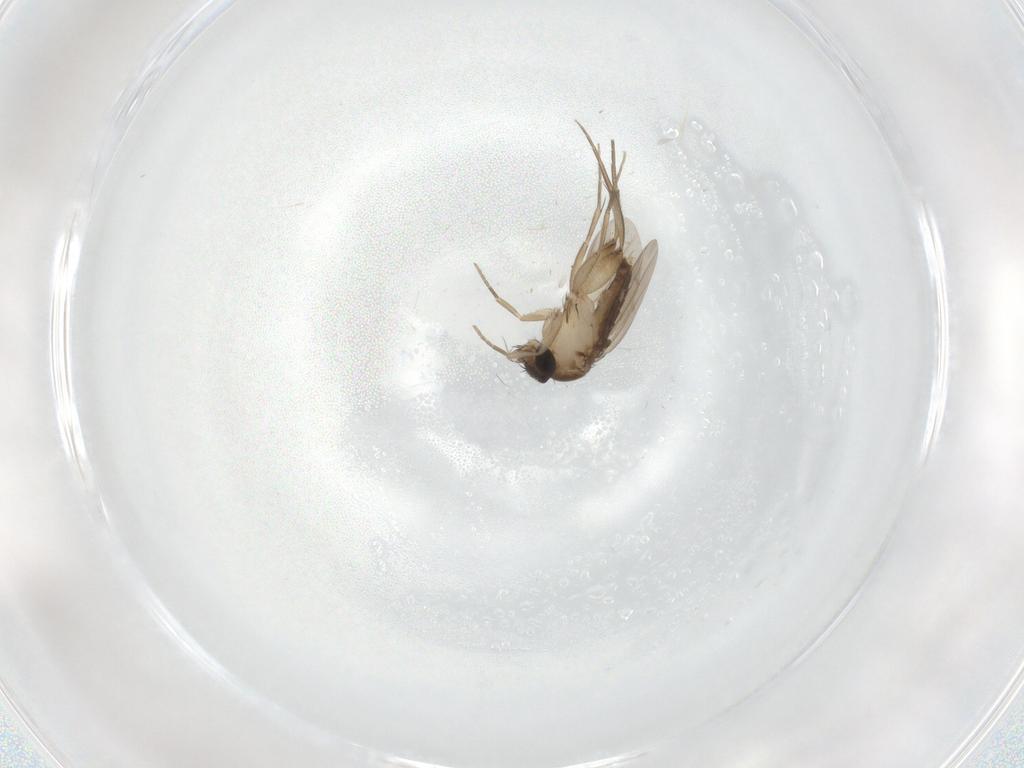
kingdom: Animalia
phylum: Arthropoda
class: Insecta
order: Diptera
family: Phoridae
